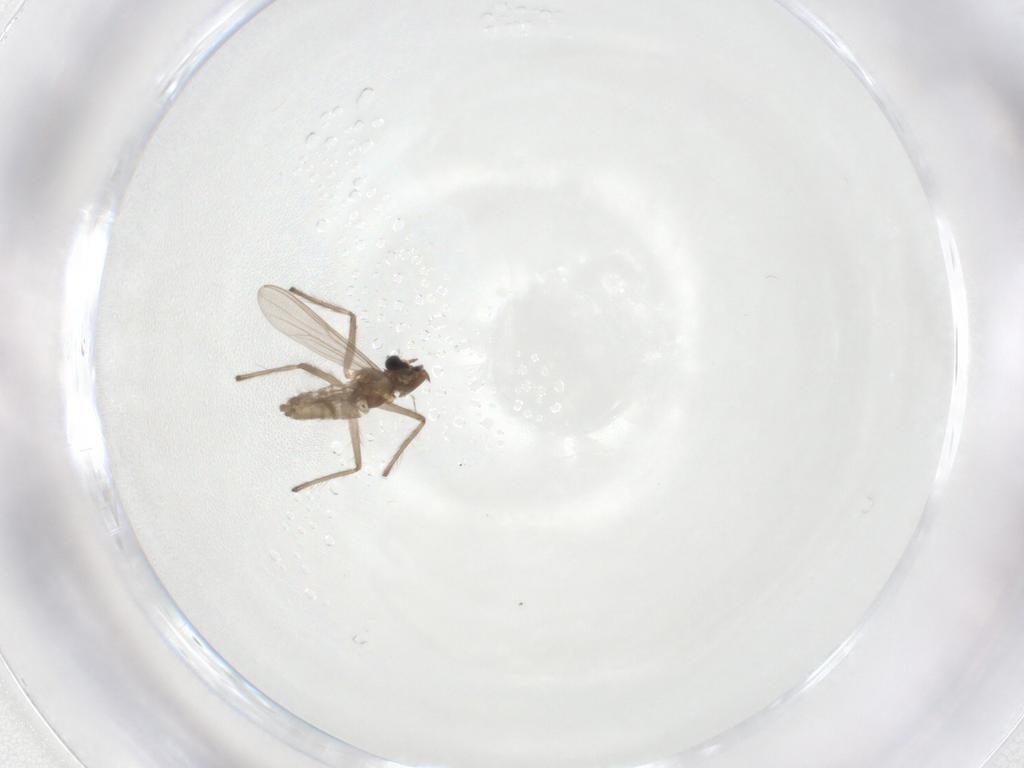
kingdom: Animalia
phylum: Arthropoda
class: Insecta
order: Diptera
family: Chironomidae
